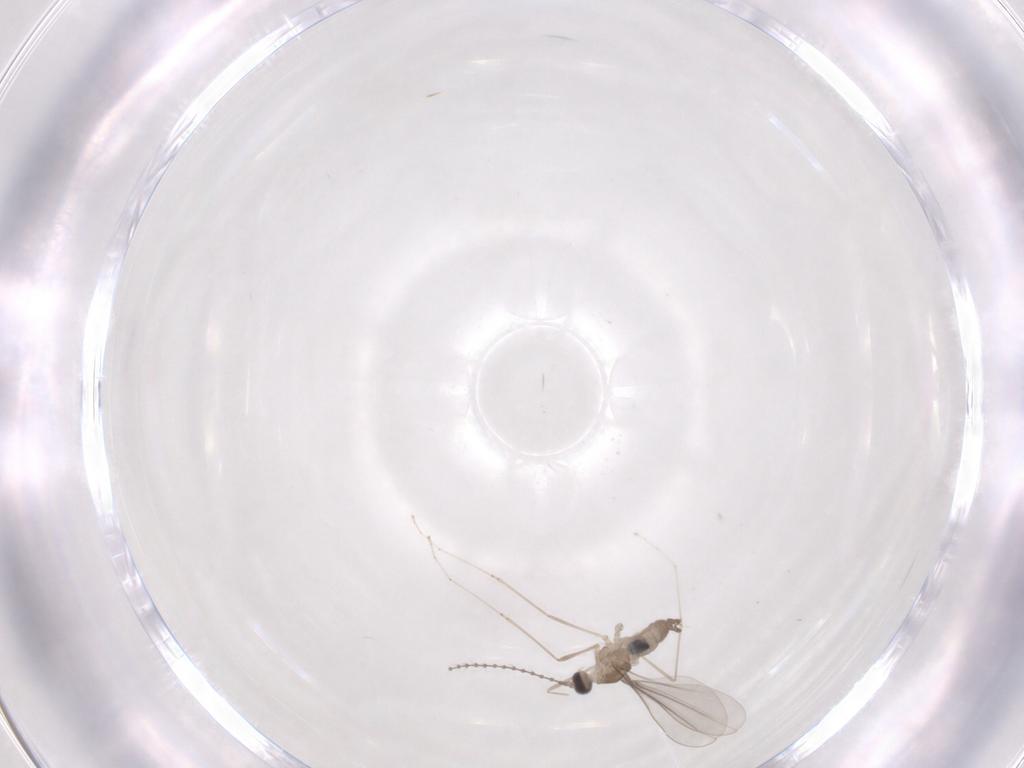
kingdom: Animalia
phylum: Arthropoda
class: Insecta
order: Diptera
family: Cecidomyiidae
